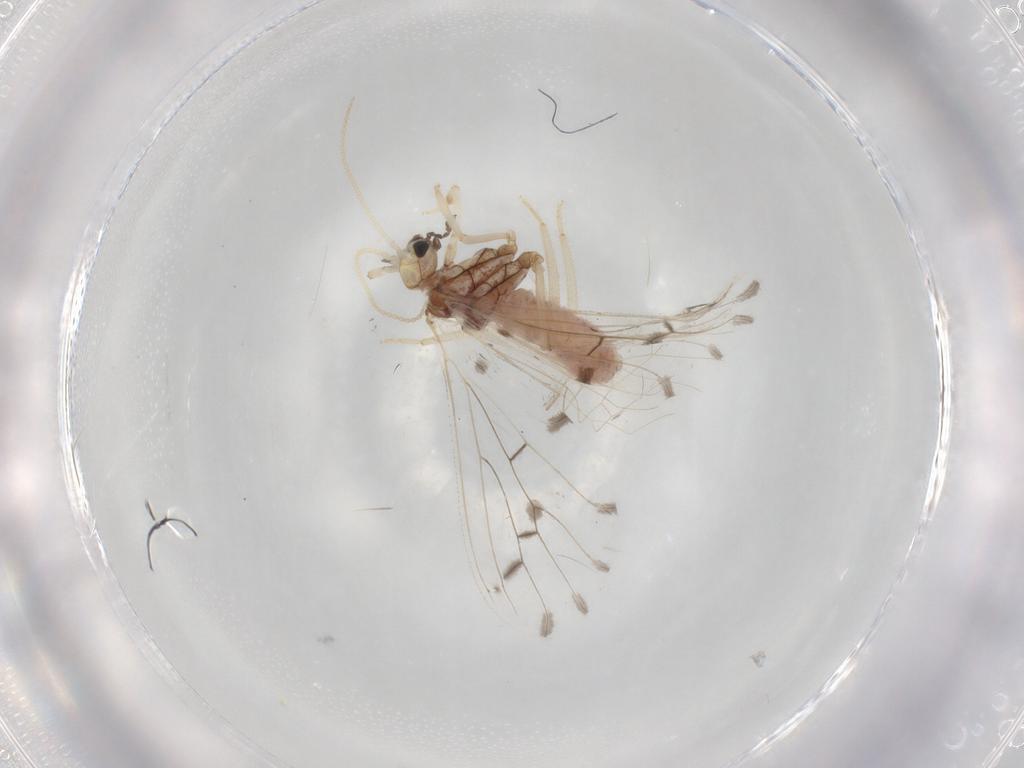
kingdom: Animalia
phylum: Arthropoda
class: Insecta
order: Neuroptera
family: Coniopterygidae
